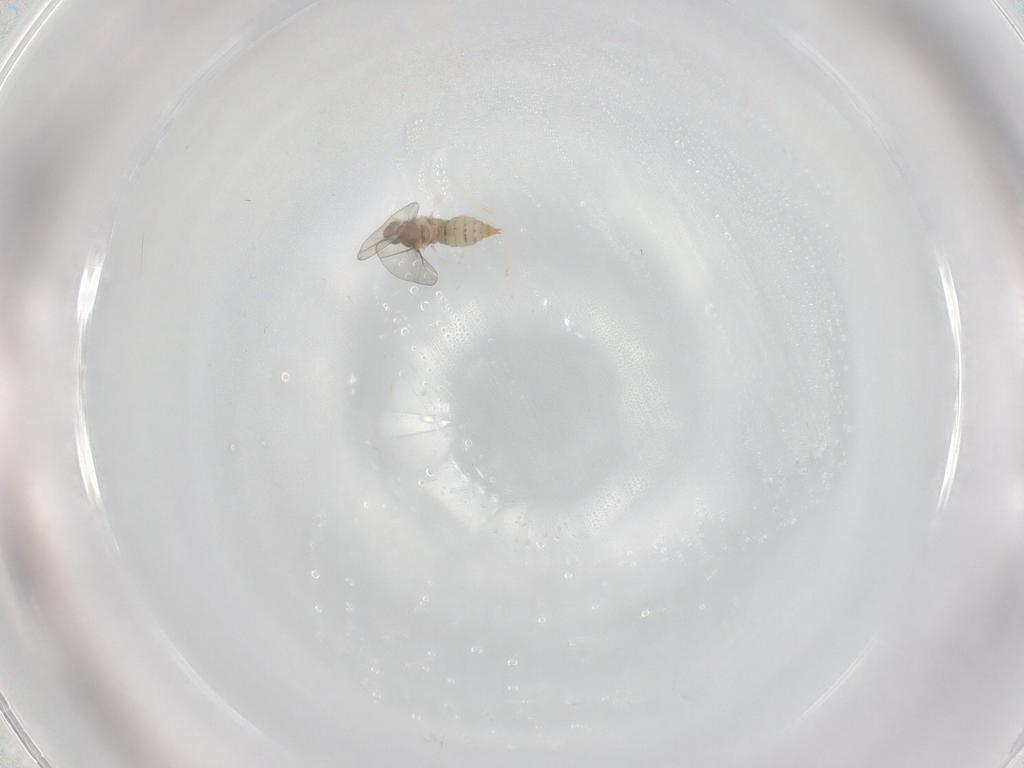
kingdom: Animalia
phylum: Arthropoda
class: Insecta
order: Diptera
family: Cecidomyiidae
